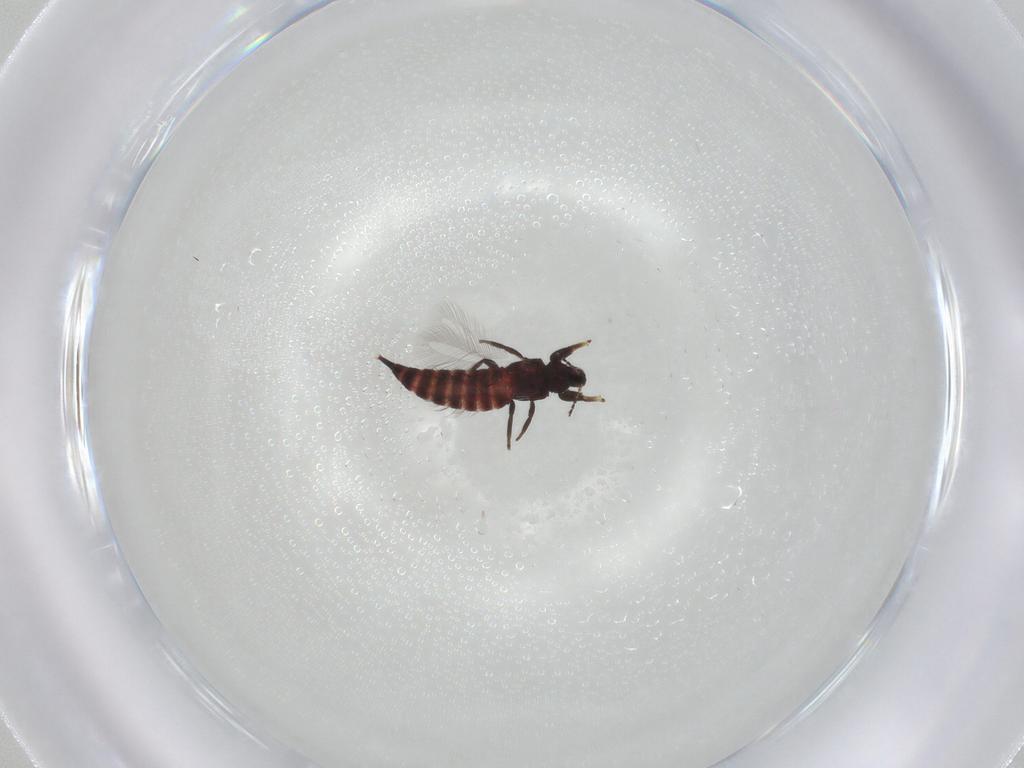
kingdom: Animalia
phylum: Arthropoda
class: Insecta
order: Thysanoptera
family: Phlaeothripidae
